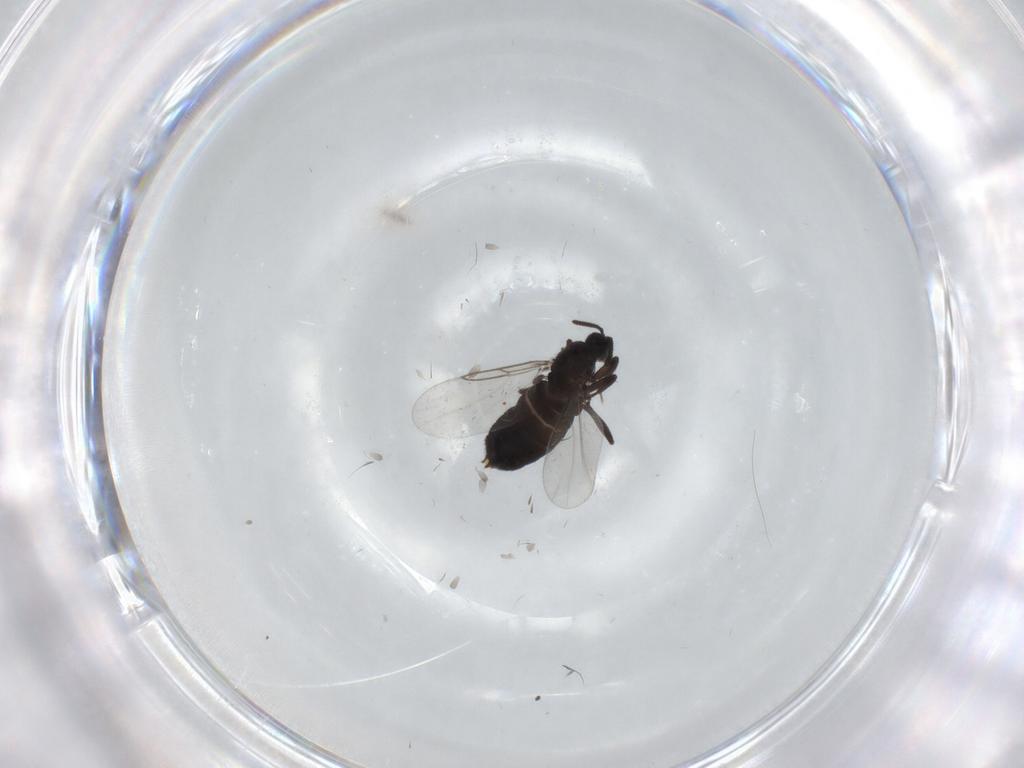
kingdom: Animalia
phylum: Arthropoda
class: Insecta
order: Diptera
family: Scatopsidae
